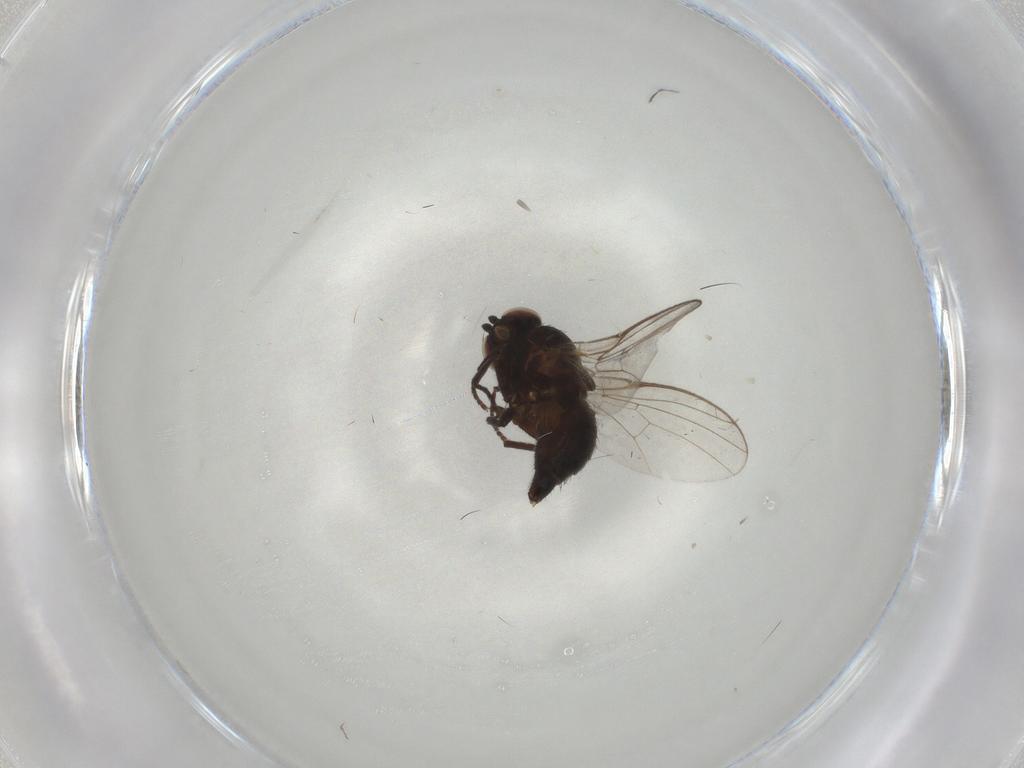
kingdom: Animalia
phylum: Arthropoda
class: Insecta
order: Diptera
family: Agromyzidae
